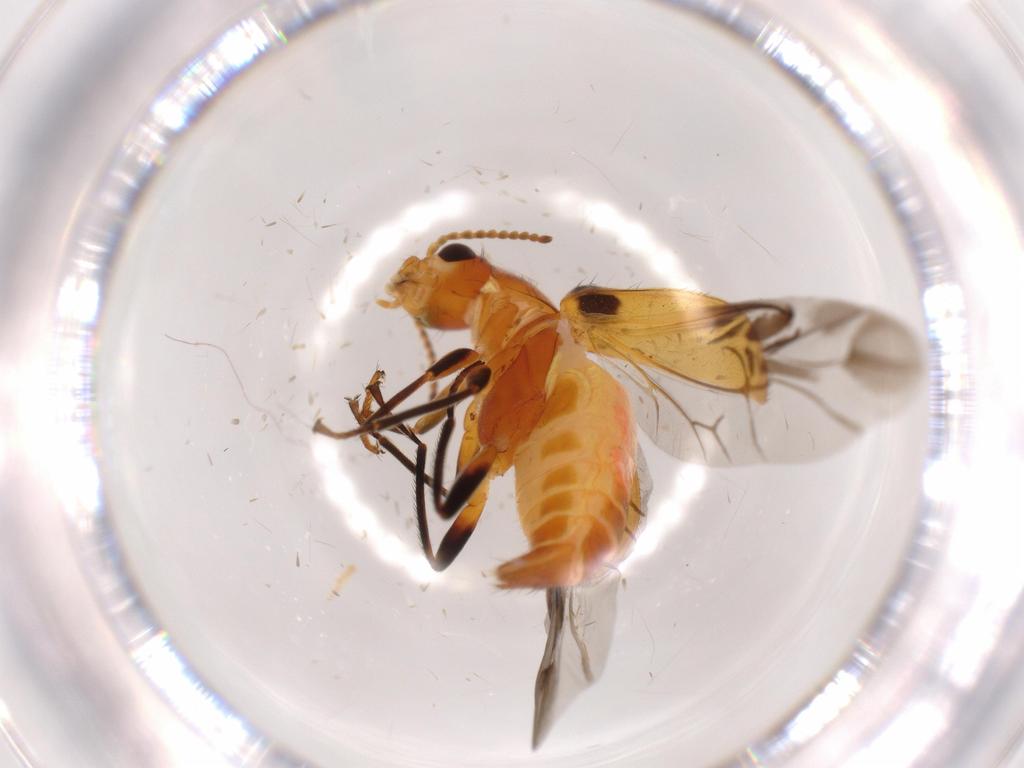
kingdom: Animalia
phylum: Arthropoda
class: Insecta
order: Coleoptera
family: Melyridae
